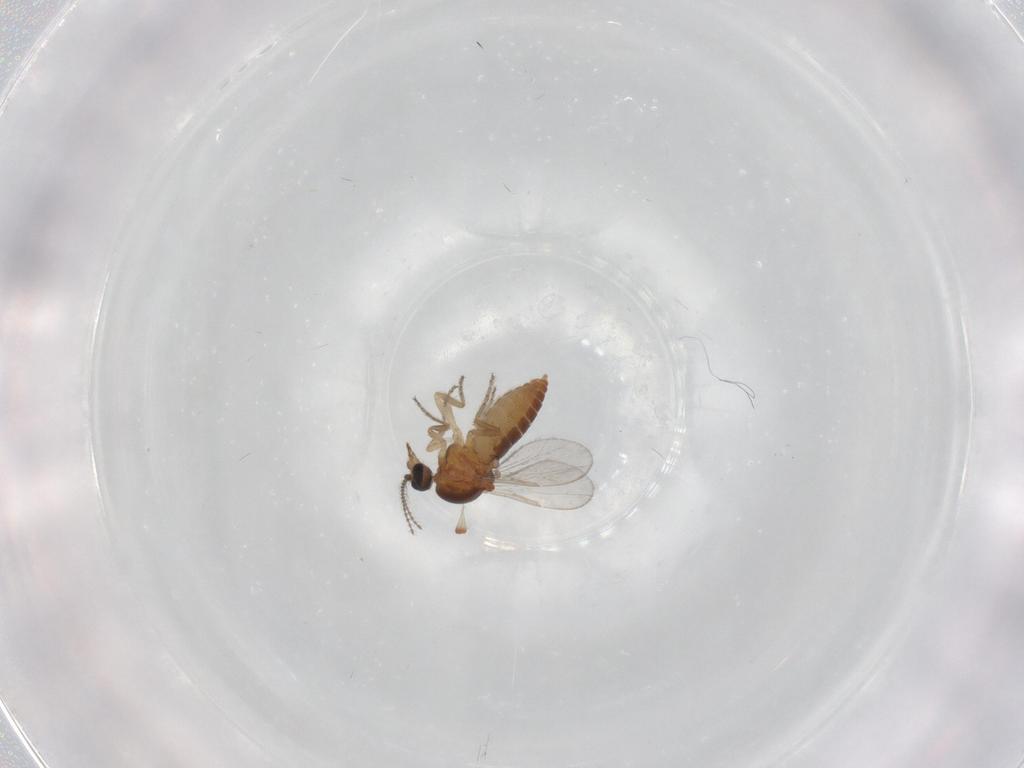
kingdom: Animalia
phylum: Arthropoda
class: Insecta
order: Diptera
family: Ceratopogonidae
